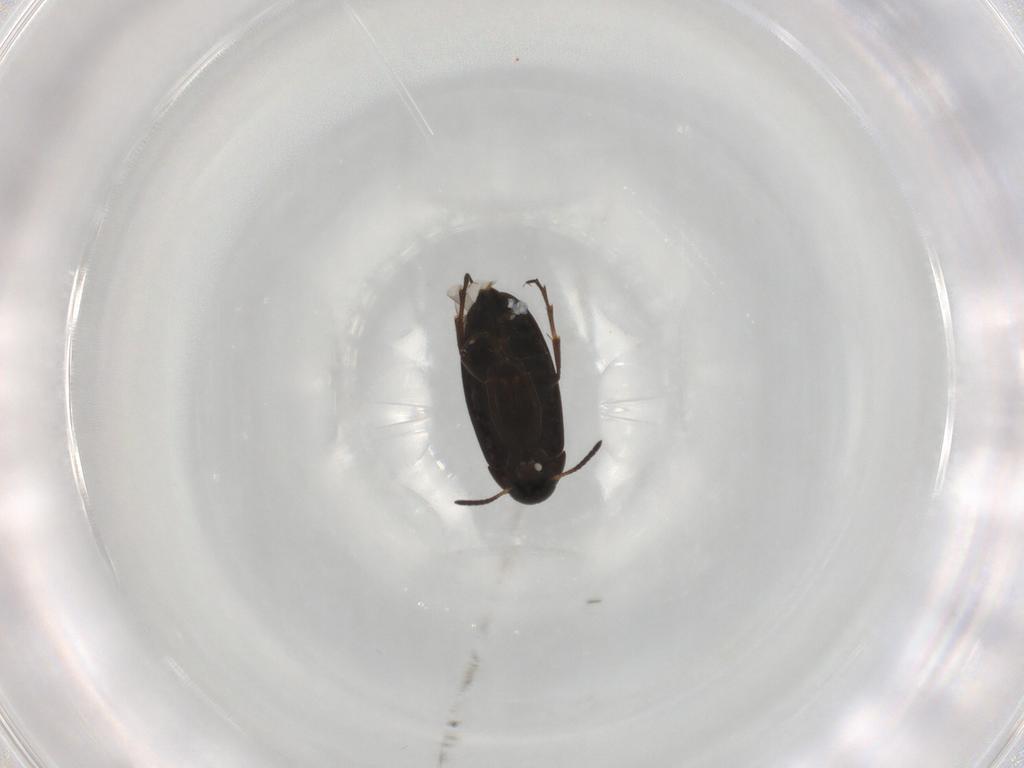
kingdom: Animalia
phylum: Arthropoda
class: Insecta
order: Coleoptera
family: Scraptiidae
